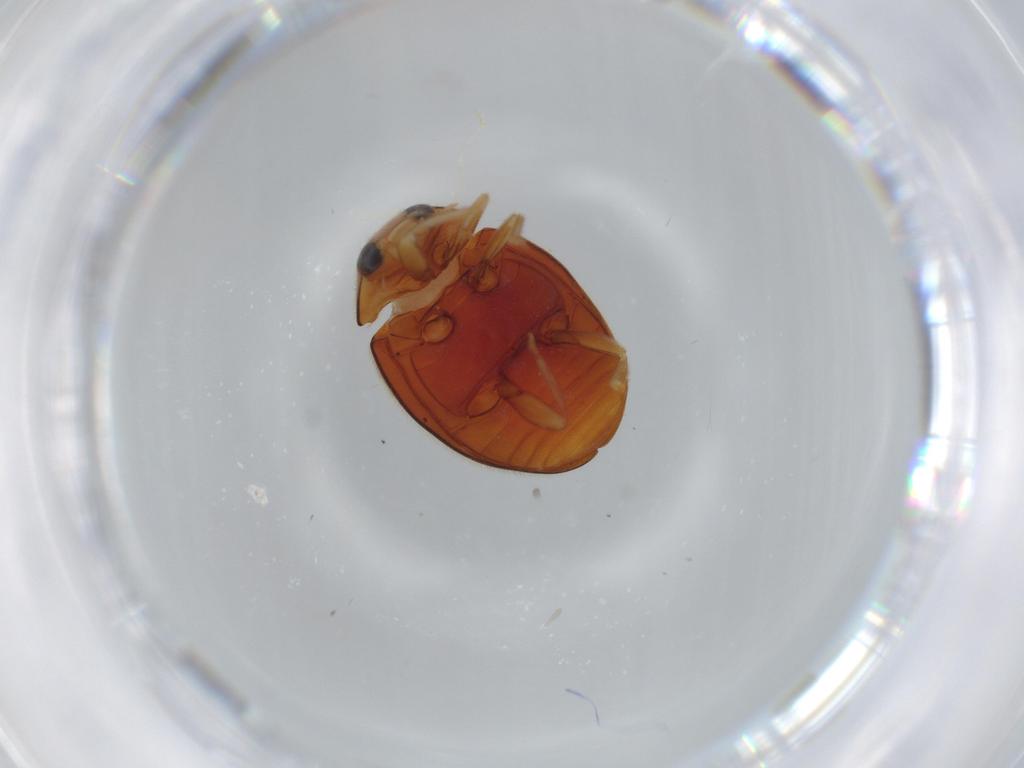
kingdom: Animalia
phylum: Arthropoda
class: Insecta
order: Coleoptera
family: Coccinellidae
